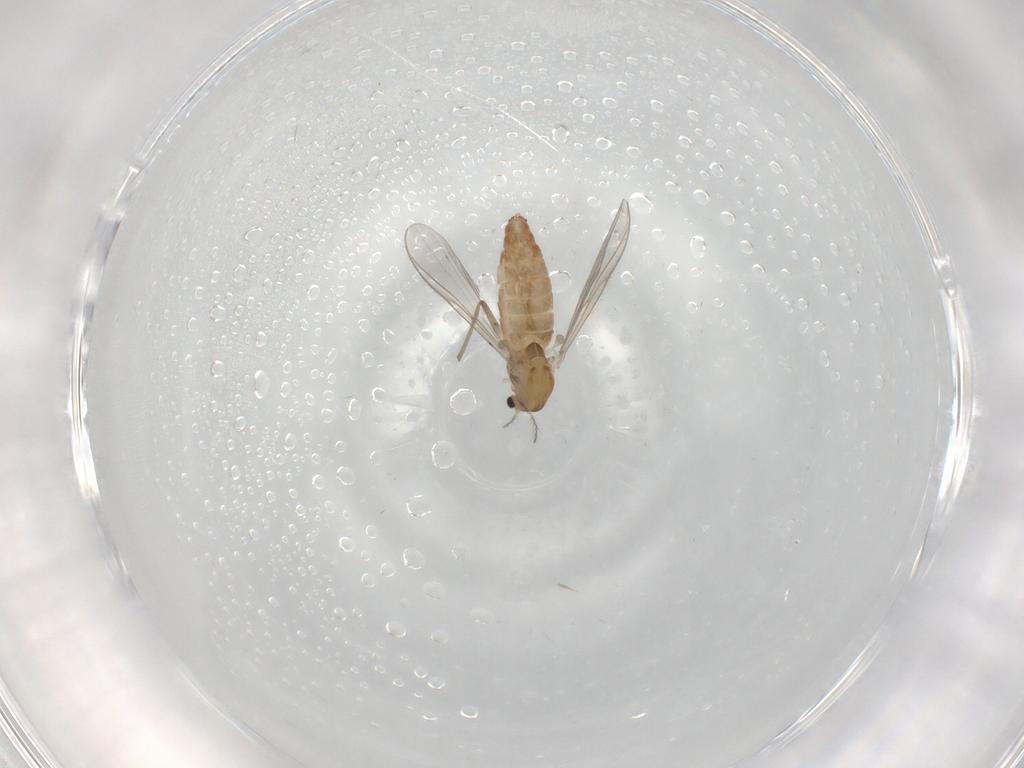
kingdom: Animalia
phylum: Arthropoda
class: Insecta
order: Diptera
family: Chironomidae
